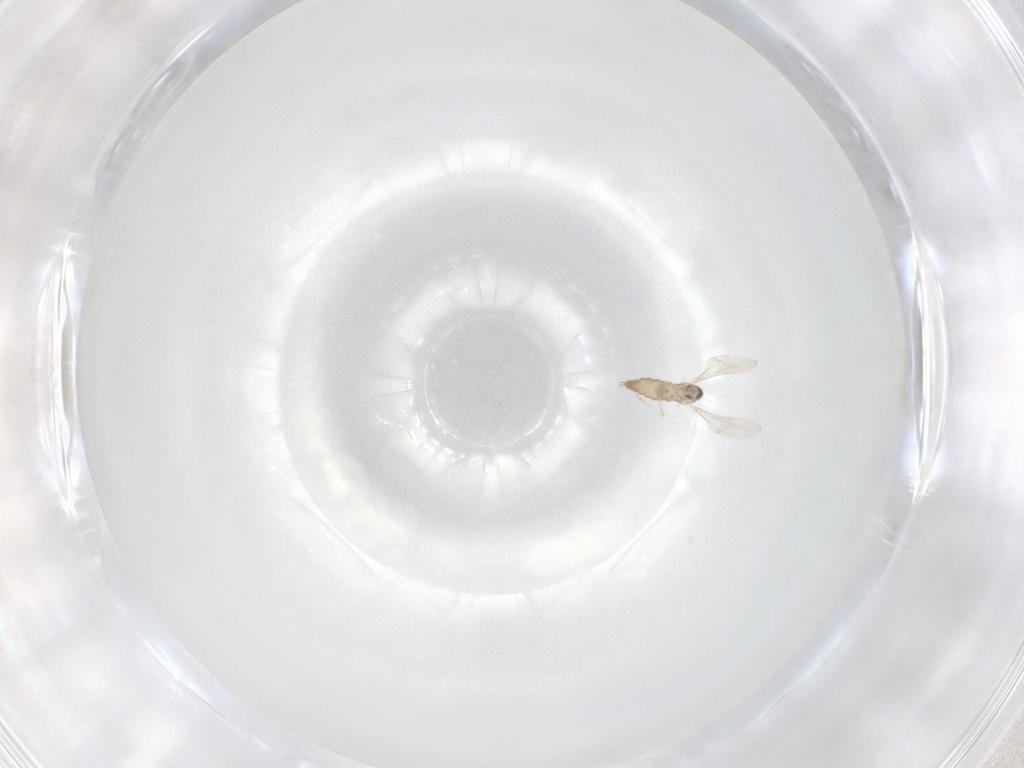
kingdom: Animalia
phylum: Arthropoda
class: Insecta
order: Diptera
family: Cecidomyiidae
